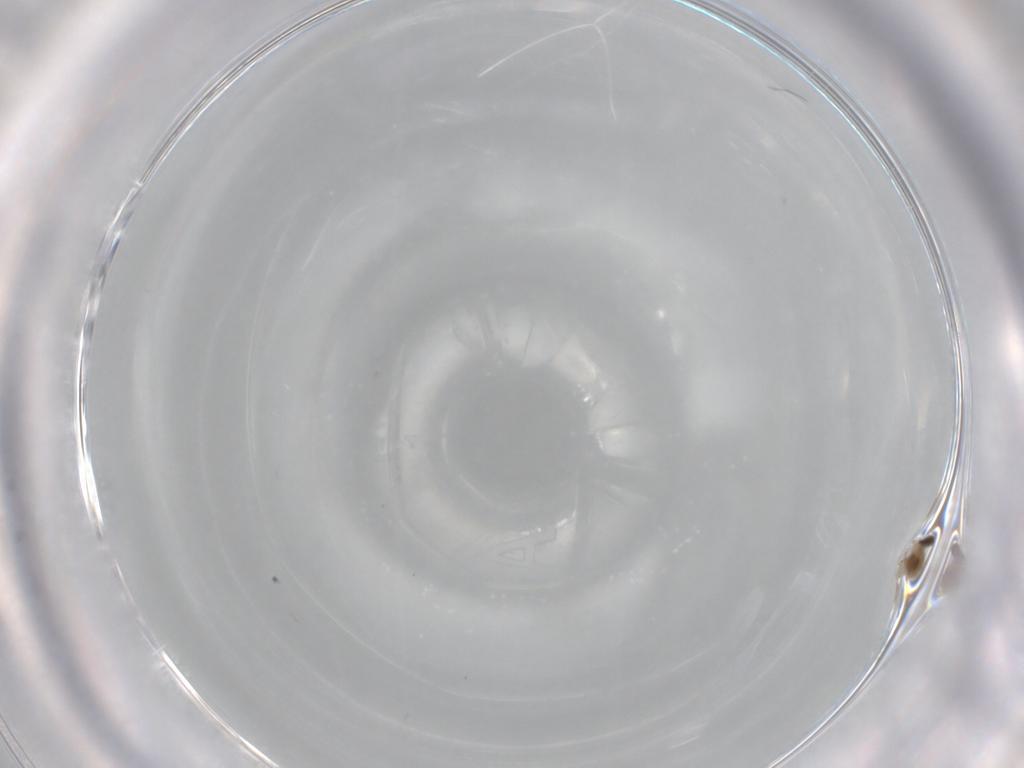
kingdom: Animalia
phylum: Arthropoda
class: Insecta
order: Diptera
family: Cecidomyiidae
